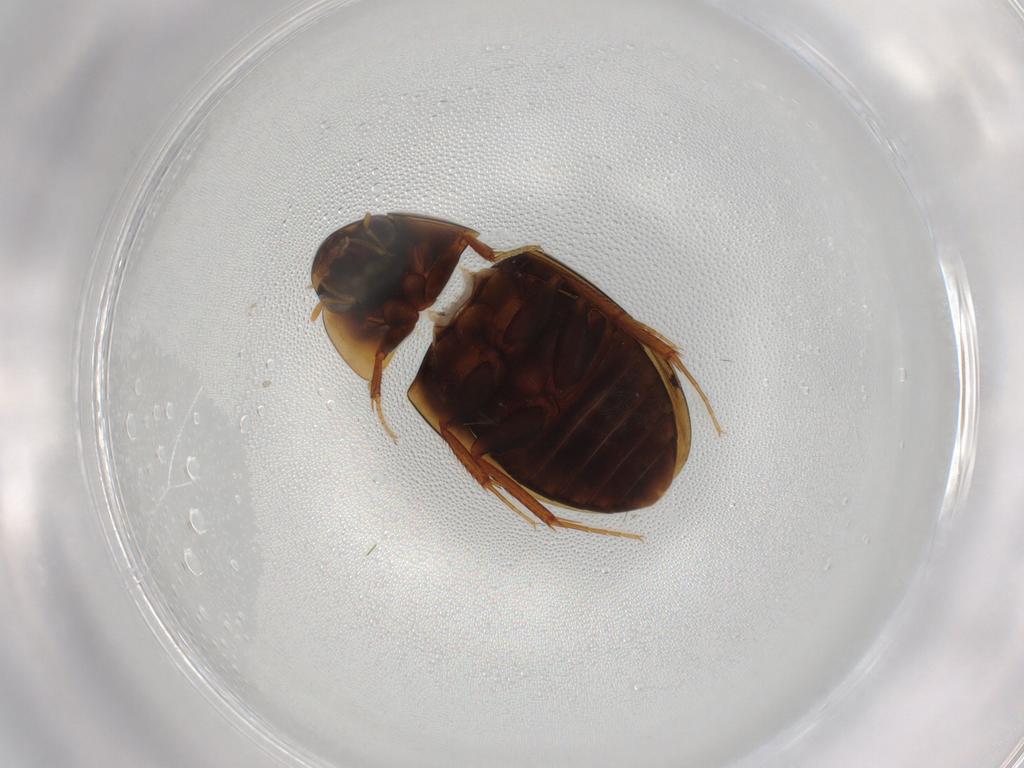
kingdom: Animalia
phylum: Arthropoda
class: Insecta
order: Coleoptera
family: Hydrophilidae
